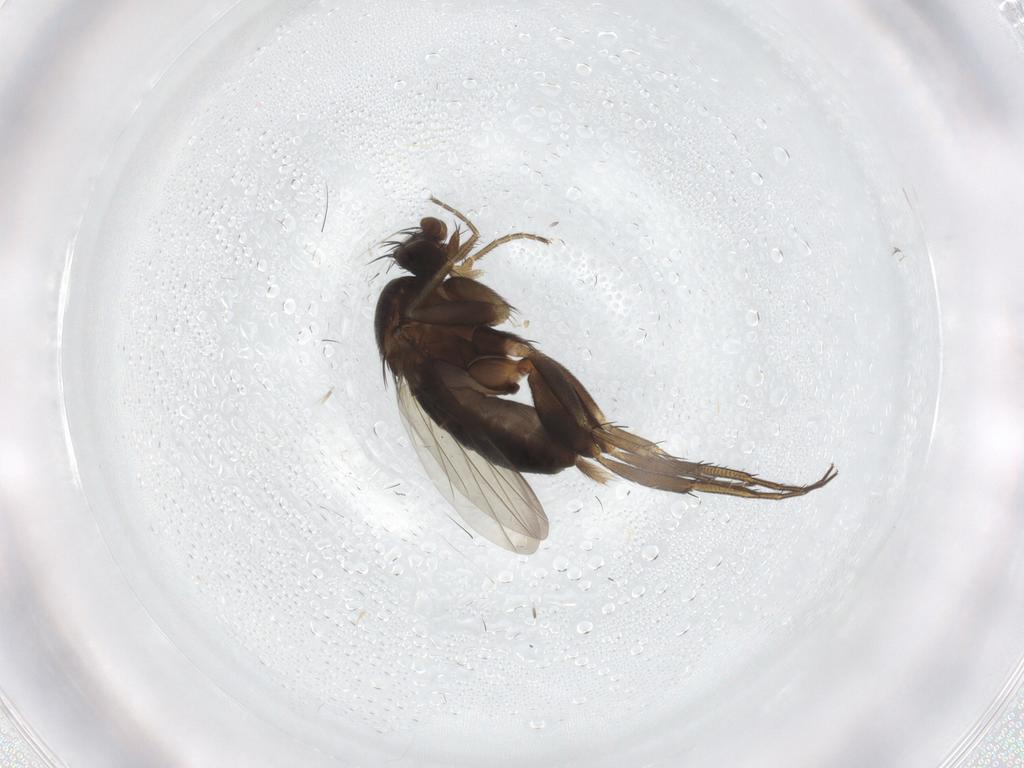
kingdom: Animalia
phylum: Arthropoda
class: Insecta
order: Diptera
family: Phoridae
